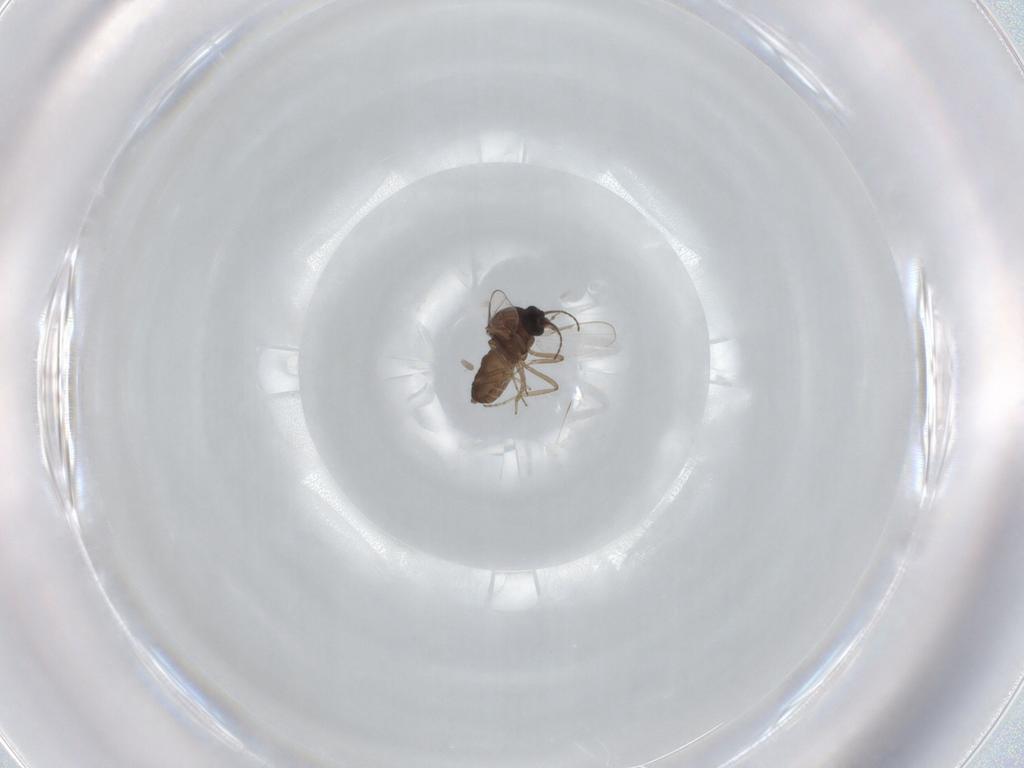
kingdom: Animalia
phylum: Arthropoda
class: Insecta
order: Diptera
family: Ceratopogonidae
